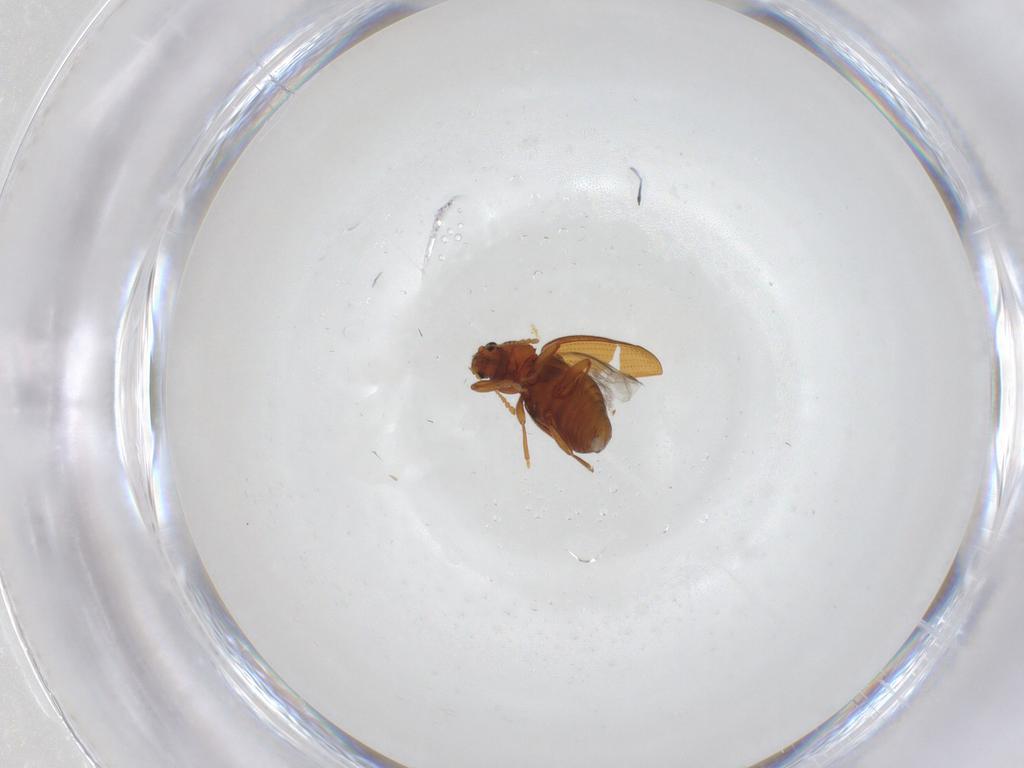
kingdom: Animalia
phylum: Arthropoda
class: Insecta
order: Coleoptera
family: Latridiidae
